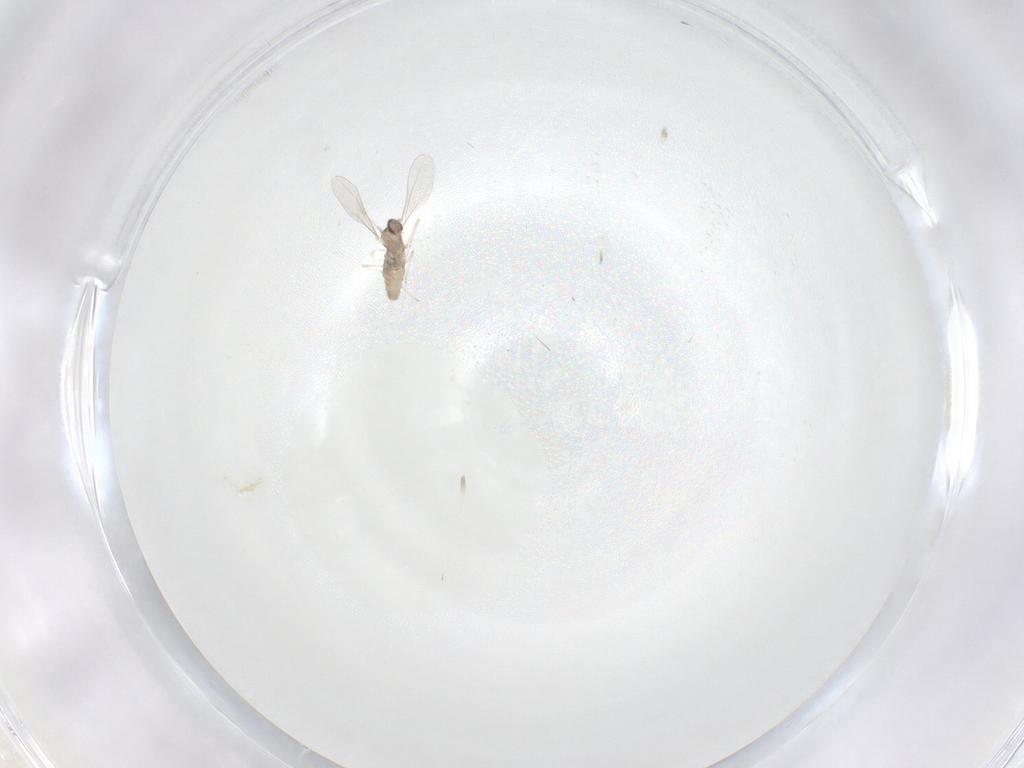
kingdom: Animalia
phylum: Arthropoda
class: Insecta
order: Diptera
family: Cecidomyiidae
